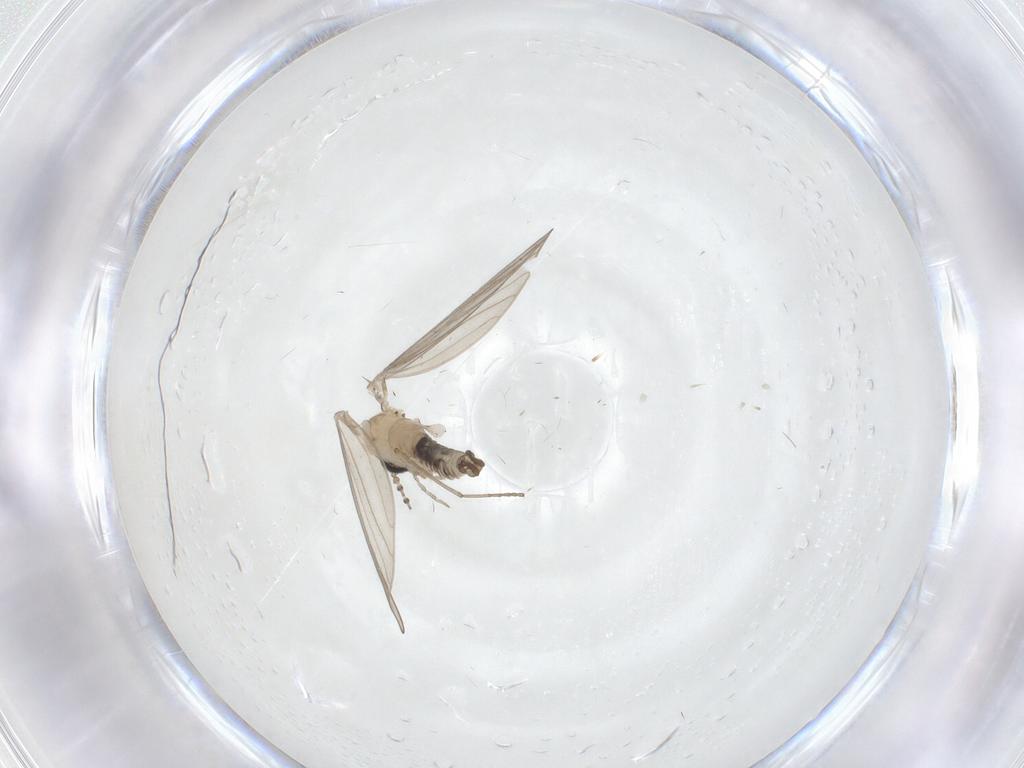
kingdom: Animalia
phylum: Arthropoda
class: Insecta
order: Diptera
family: Psychodidae
